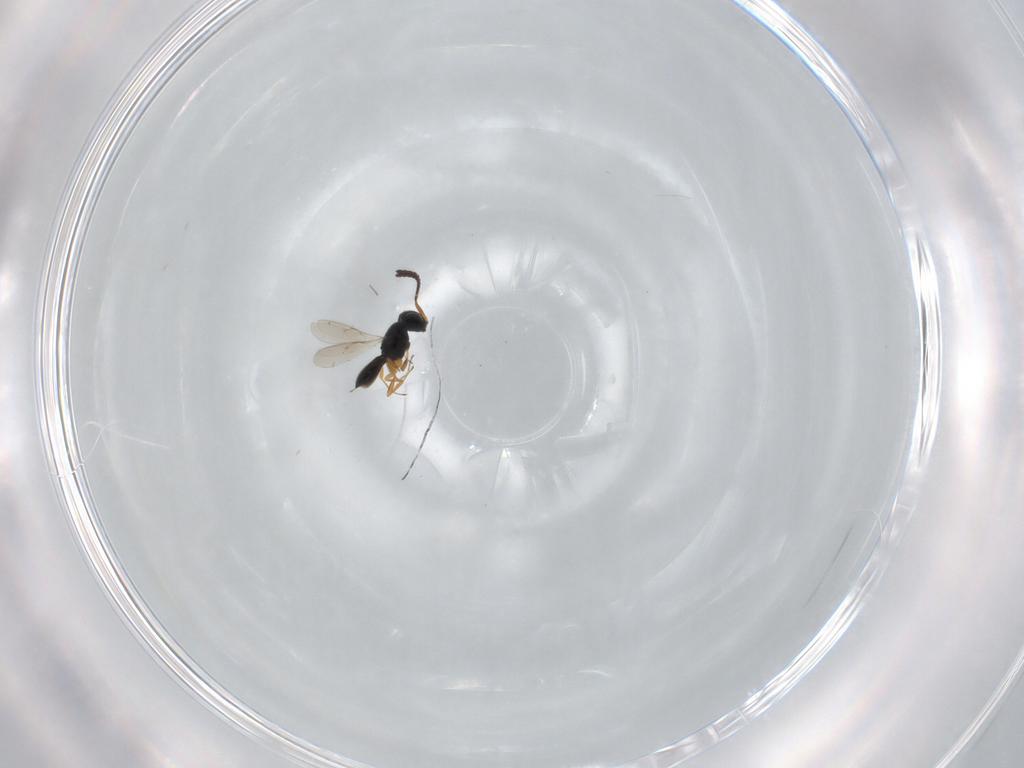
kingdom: Animalia
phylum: Arthropoda
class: Insecta
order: Hymenoptera
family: Scelionidae
